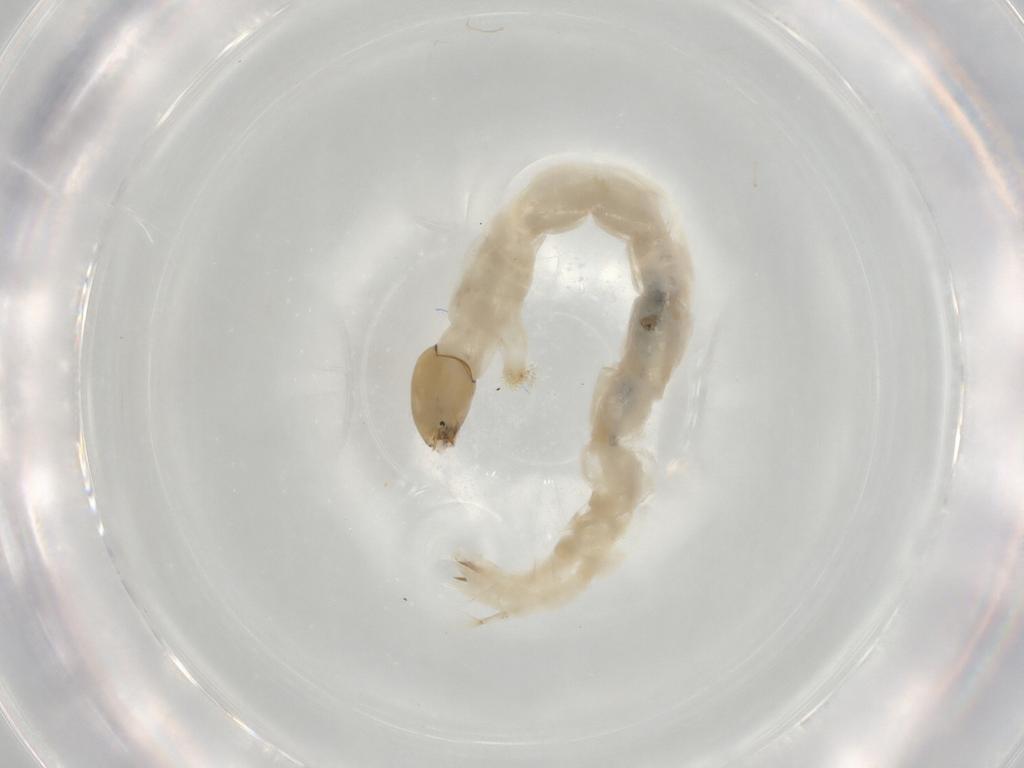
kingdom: Animalia
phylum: Arthropoda
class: Insecta
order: Diptera
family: Chironomidae
